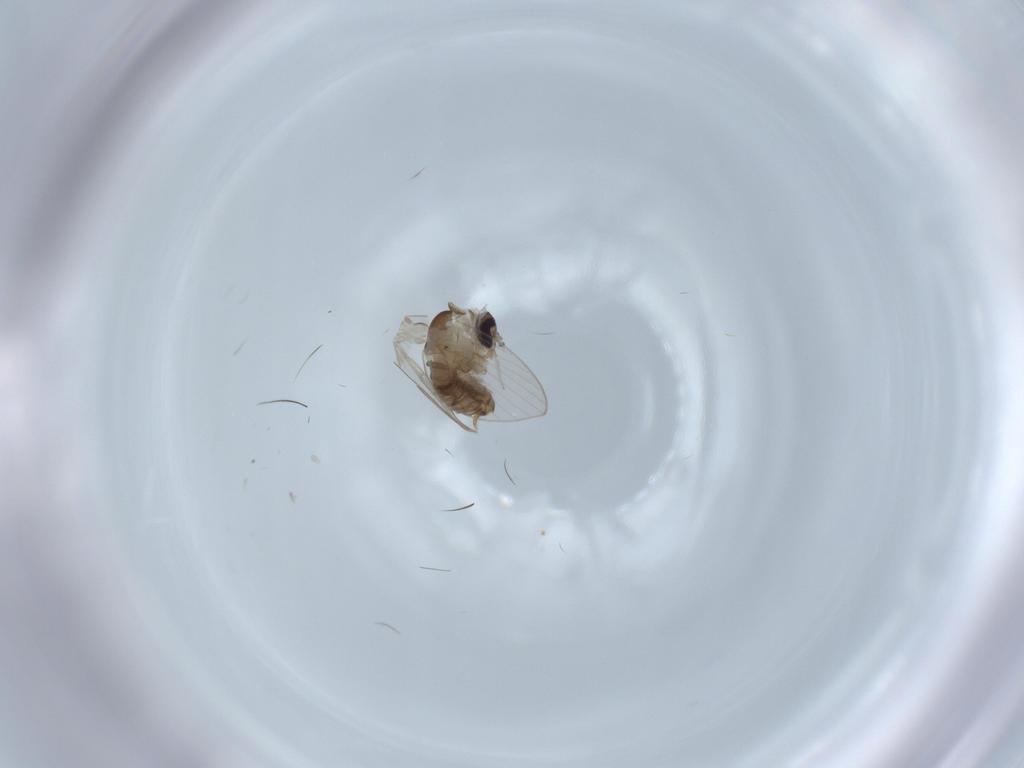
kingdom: Animalia
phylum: Arthropoda
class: Insecta
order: Diptera
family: Psychodidae
